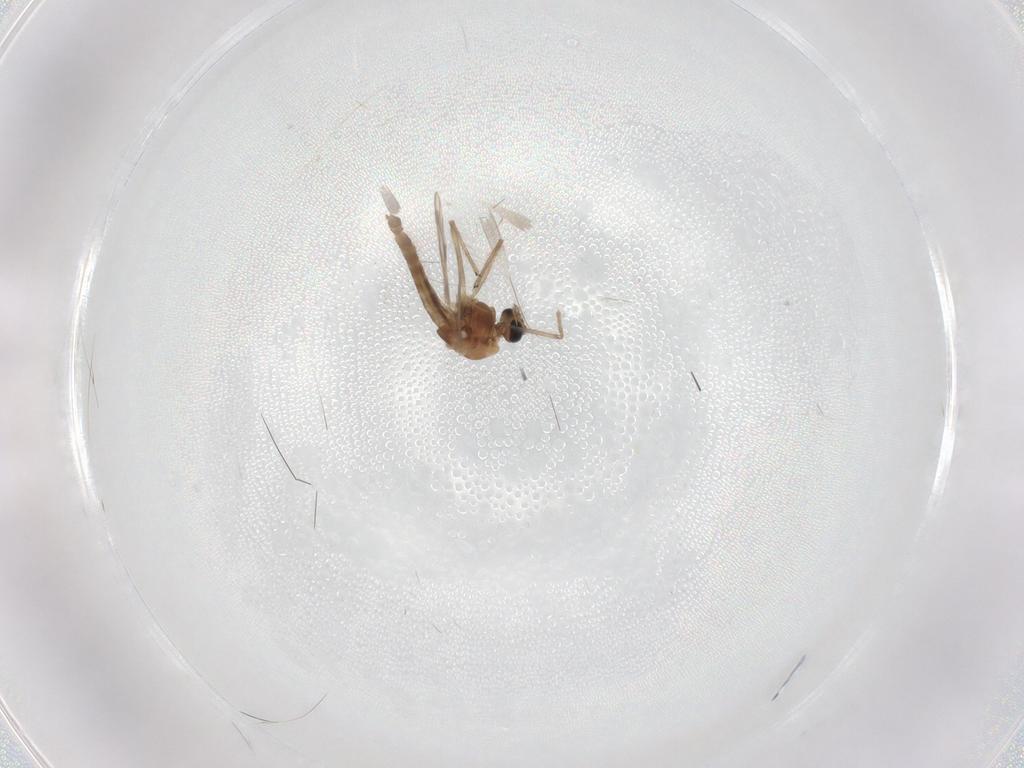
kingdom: Animalia
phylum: Arthropoda
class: Insecta
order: Diptera
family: Chironomidae
